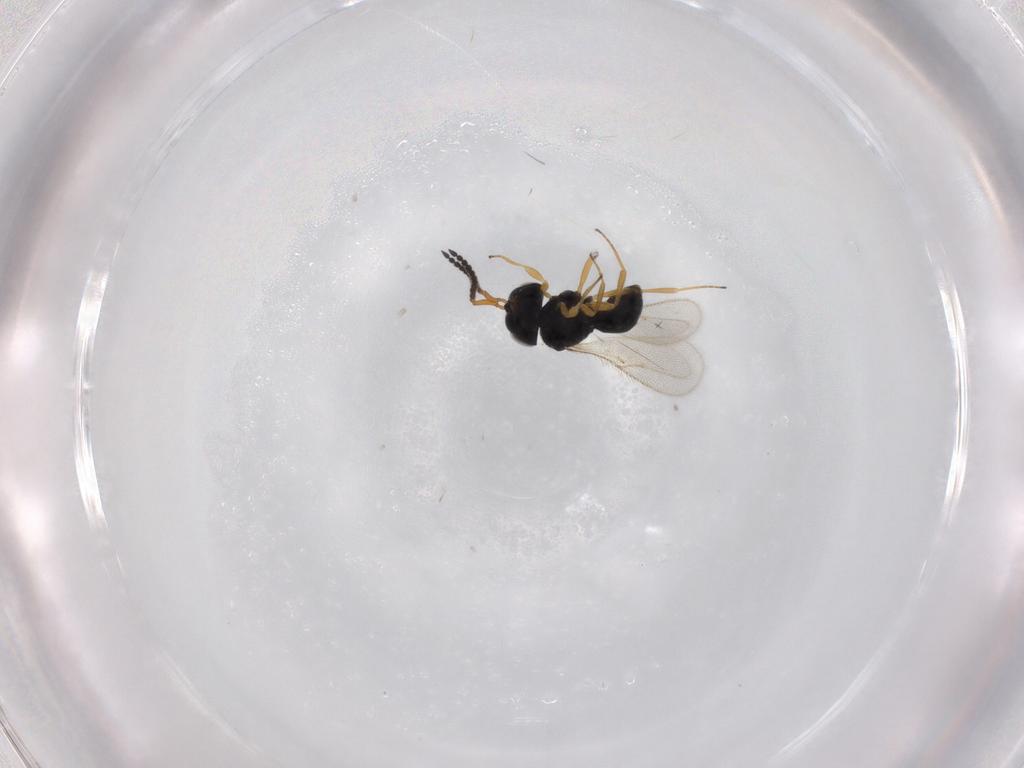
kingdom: Animalia
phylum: Arthropoda
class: Insecta
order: Hymenoptera
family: Scelionidae
